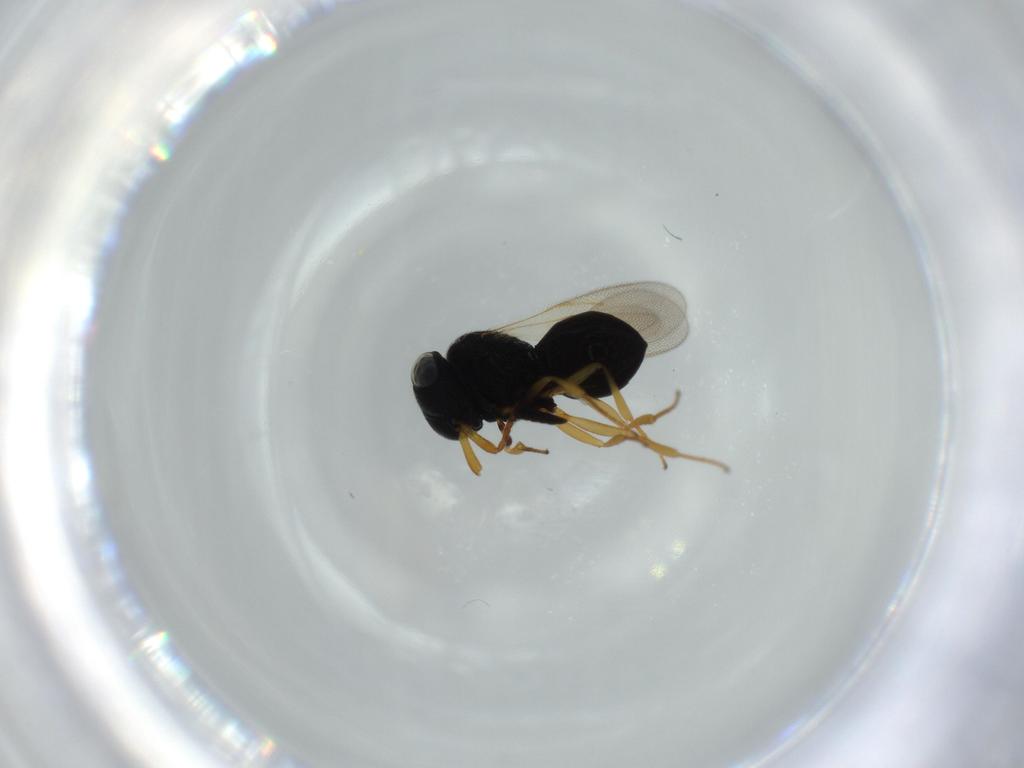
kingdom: Animalia
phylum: Arthropoda
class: Insecta
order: Hymenoptera
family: Scelionidae
